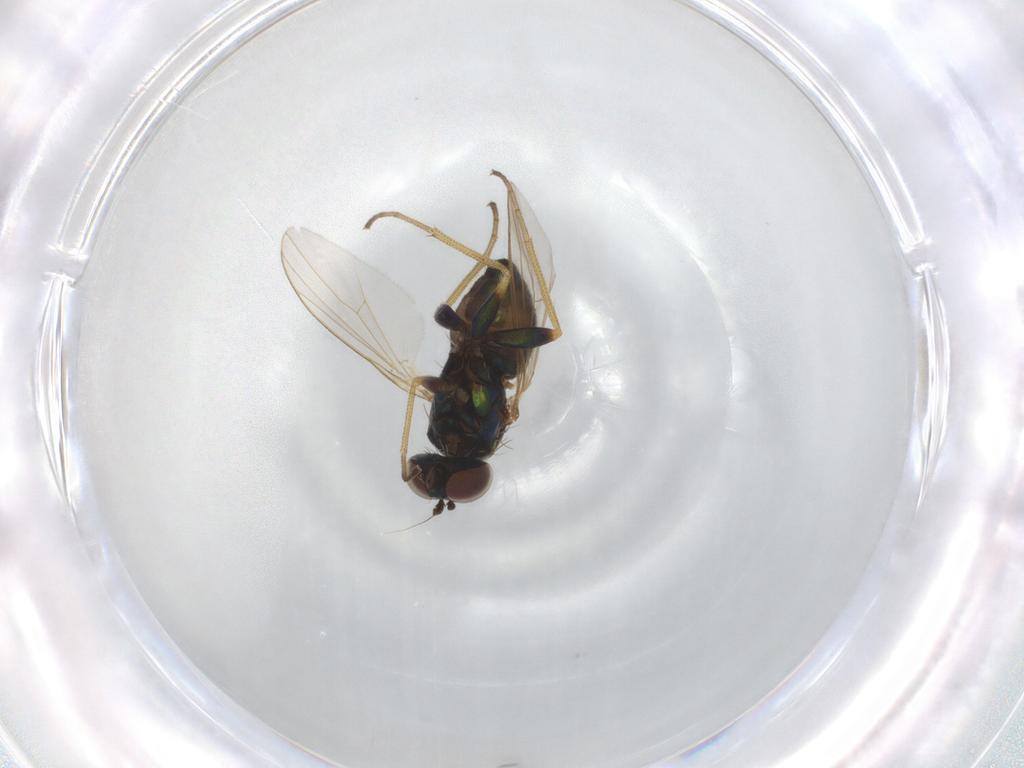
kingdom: Animalia
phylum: Arthropoda
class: Insecta
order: Diptera
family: Dolichopodidae
